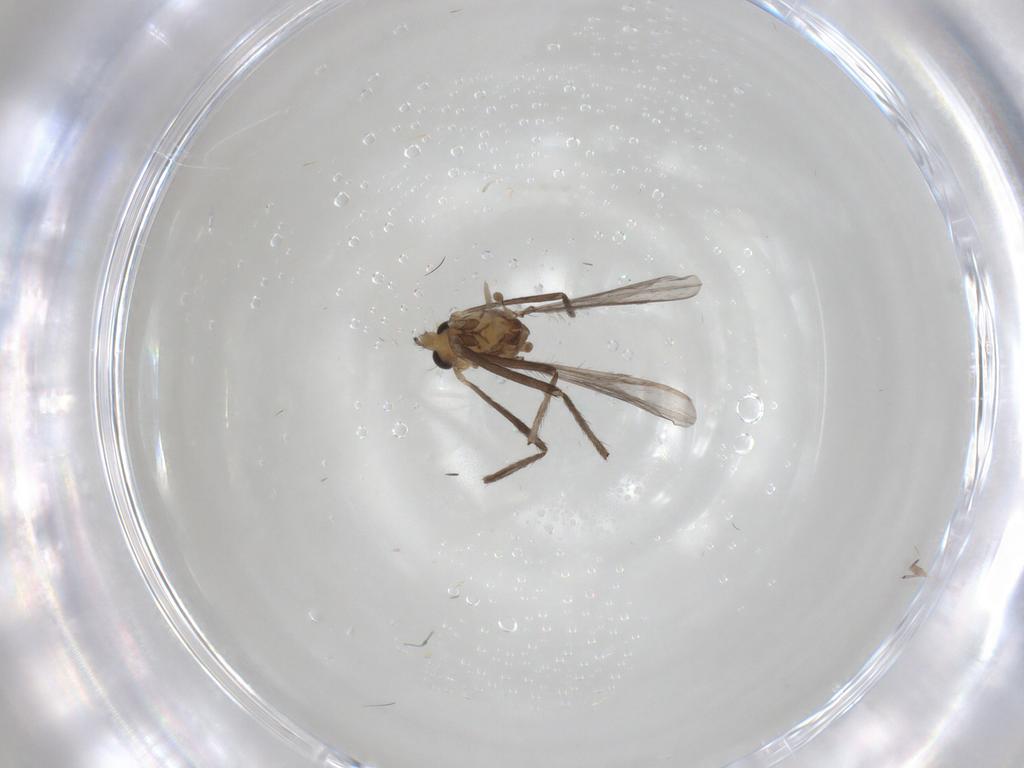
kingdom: Animalia
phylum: Arthropoda
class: Insecta
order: Diptera
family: Chironomidae
